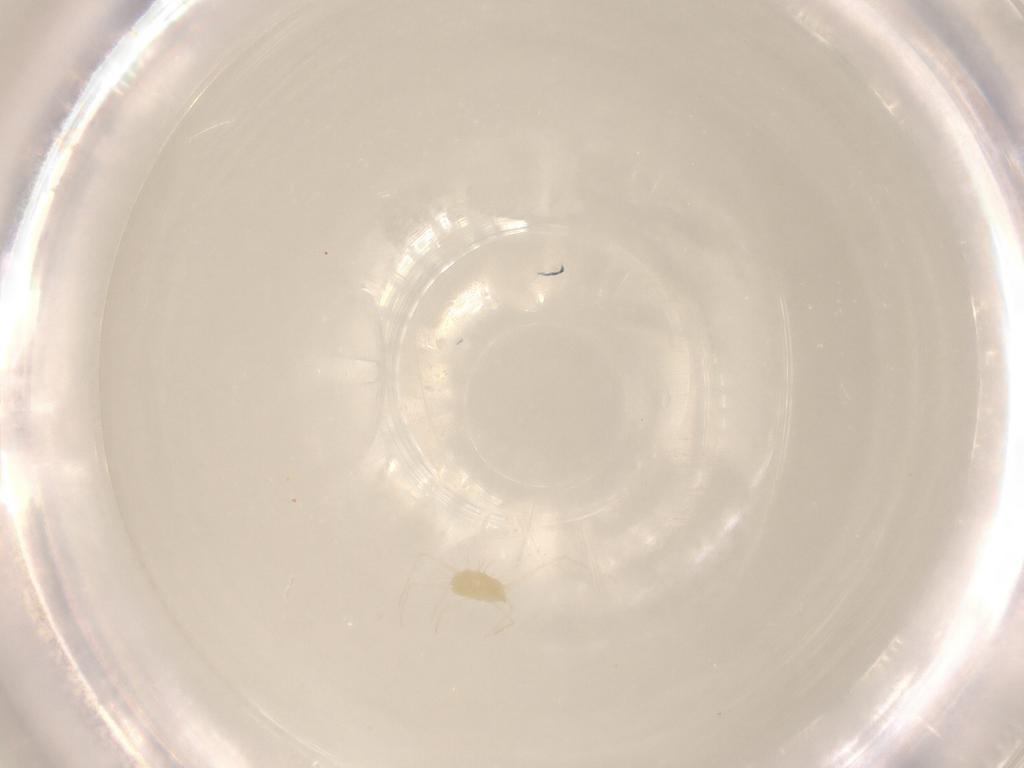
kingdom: Animalia
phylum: Arthropoda
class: Arachnida
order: Trombidiformes
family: Tetranychidae
